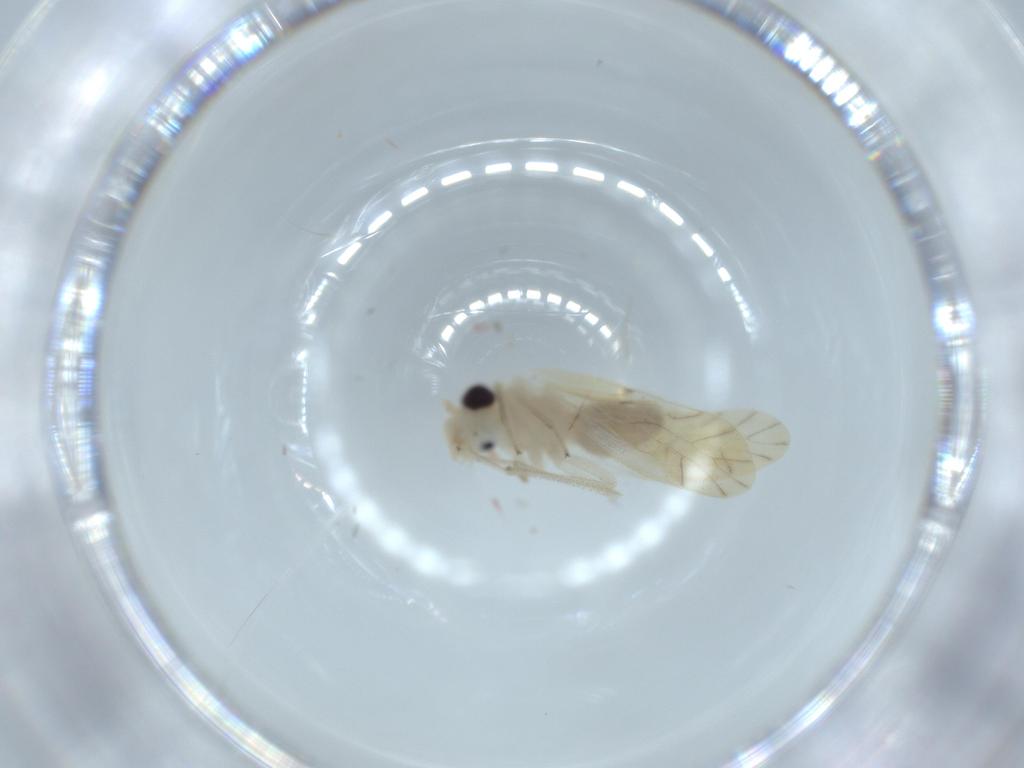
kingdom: Animalia
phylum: Arthropoda
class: Insecta
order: Psocodea
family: Caeciliusidae
